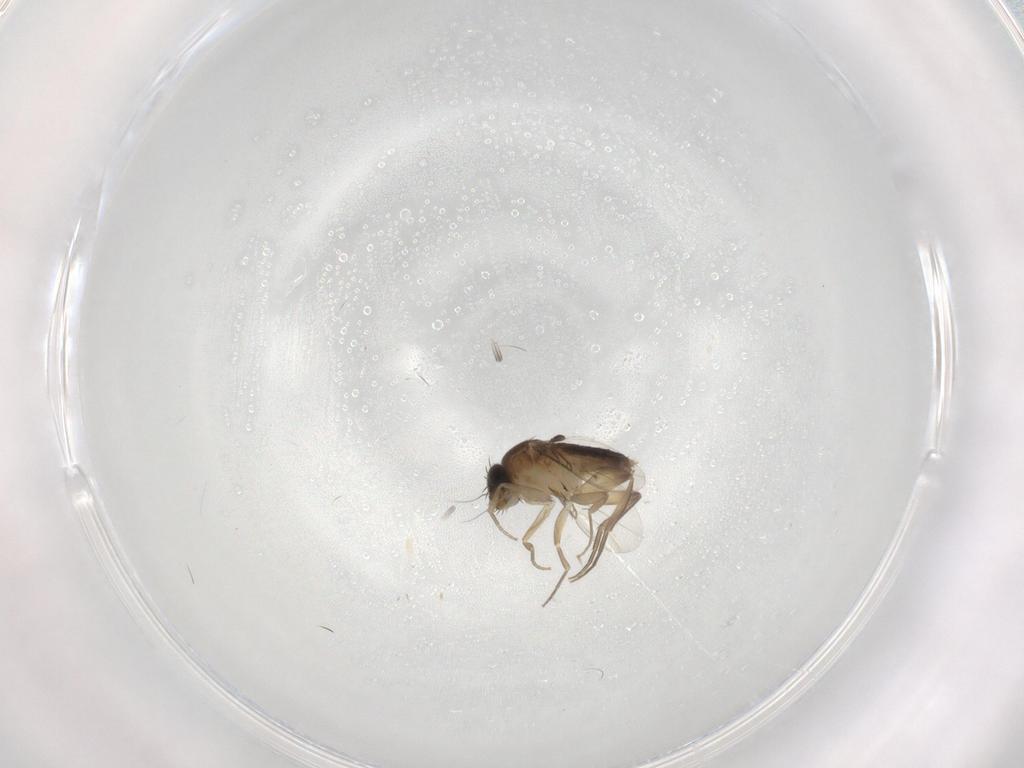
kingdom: Animalia
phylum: Arthropoda
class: Insecta
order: Diptera
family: Phoridae
